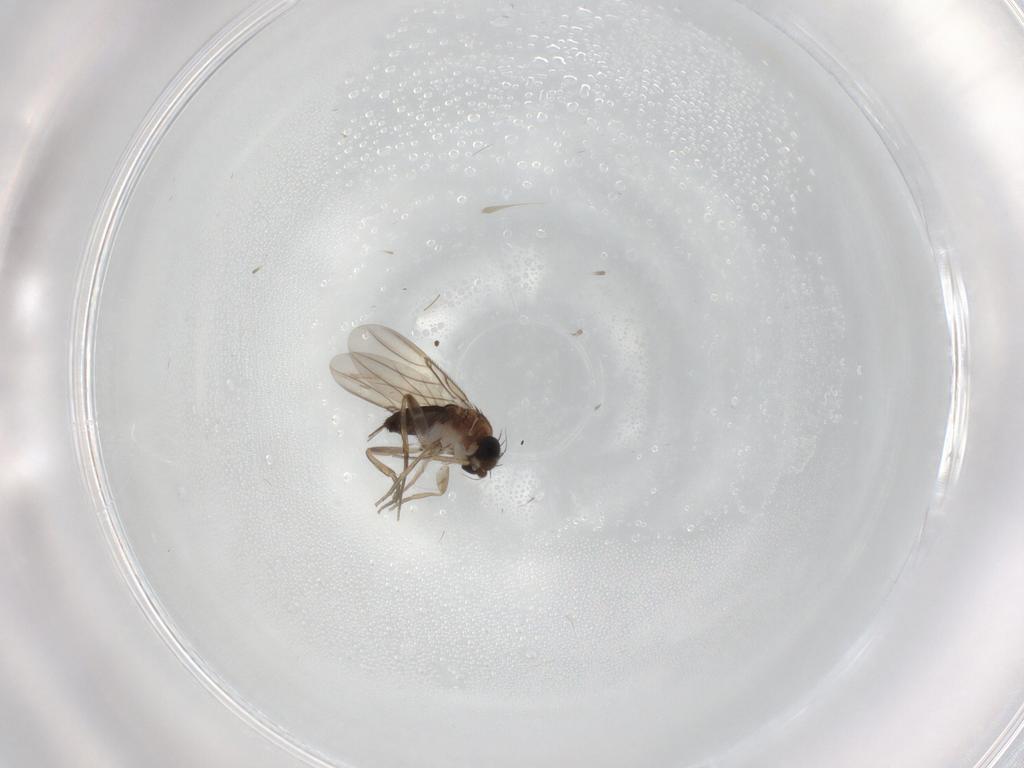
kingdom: Animalia
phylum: Arthropoda
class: Insecta
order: Diptera
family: Phoridae
